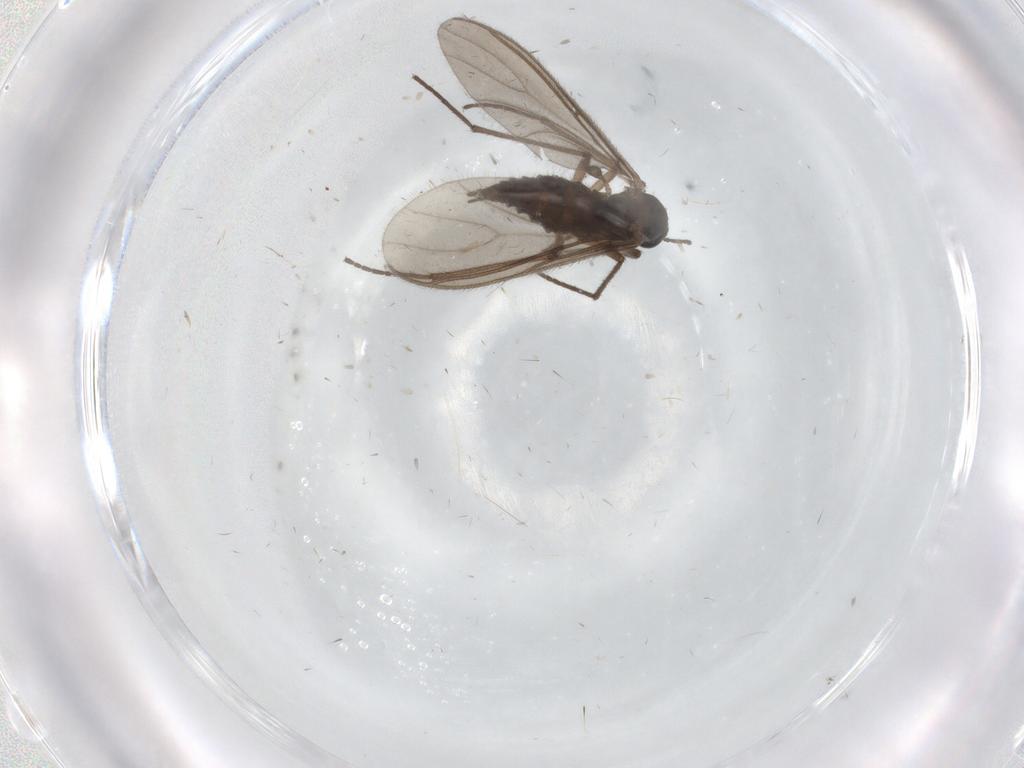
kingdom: Animalia
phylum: Arthropoda
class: Insecta
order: Diptera
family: Sciaridae
